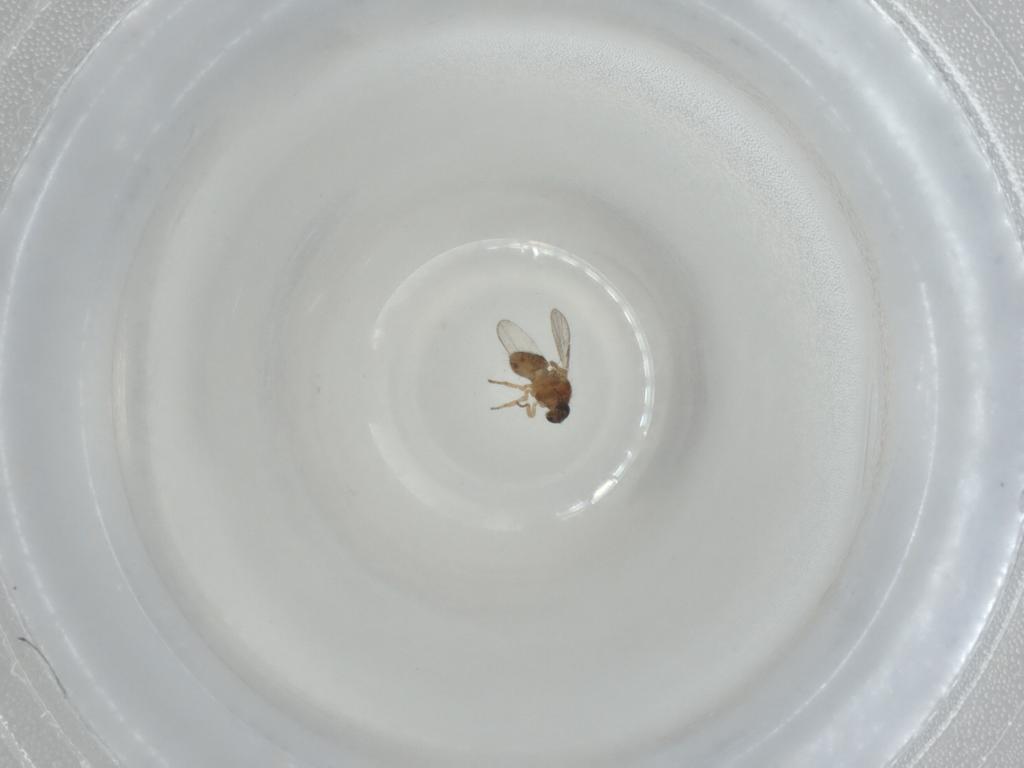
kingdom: Animalia
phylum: Arthropoda
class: Insecta
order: Diptera
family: Ceratopogonidae
